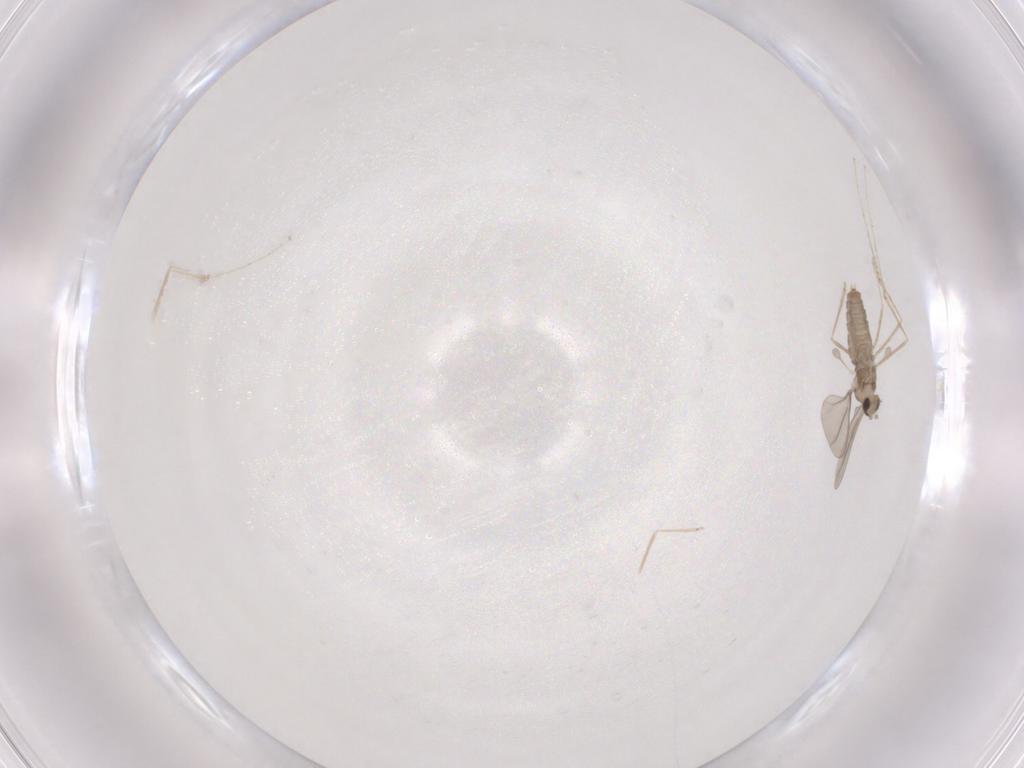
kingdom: Animalia
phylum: Arthropoda
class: Insecta
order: Diptera
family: Cecidomyiidae
